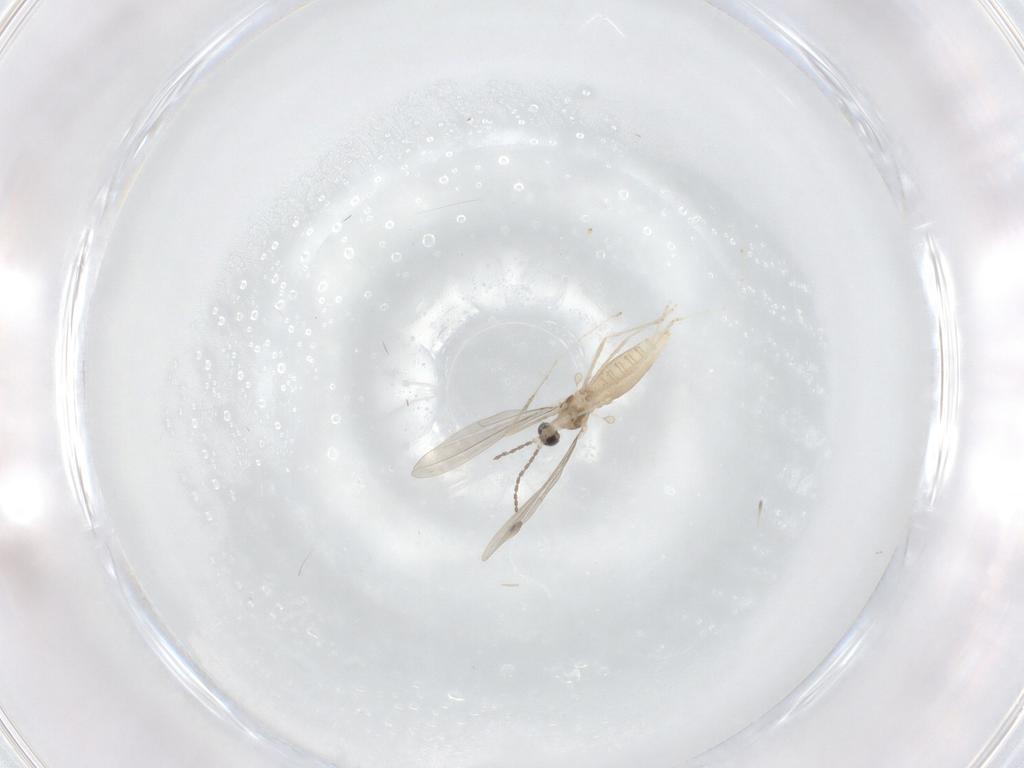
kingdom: Animalia
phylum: Arthropoda
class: Insecta
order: Diptera
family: Cecidomyiidae
